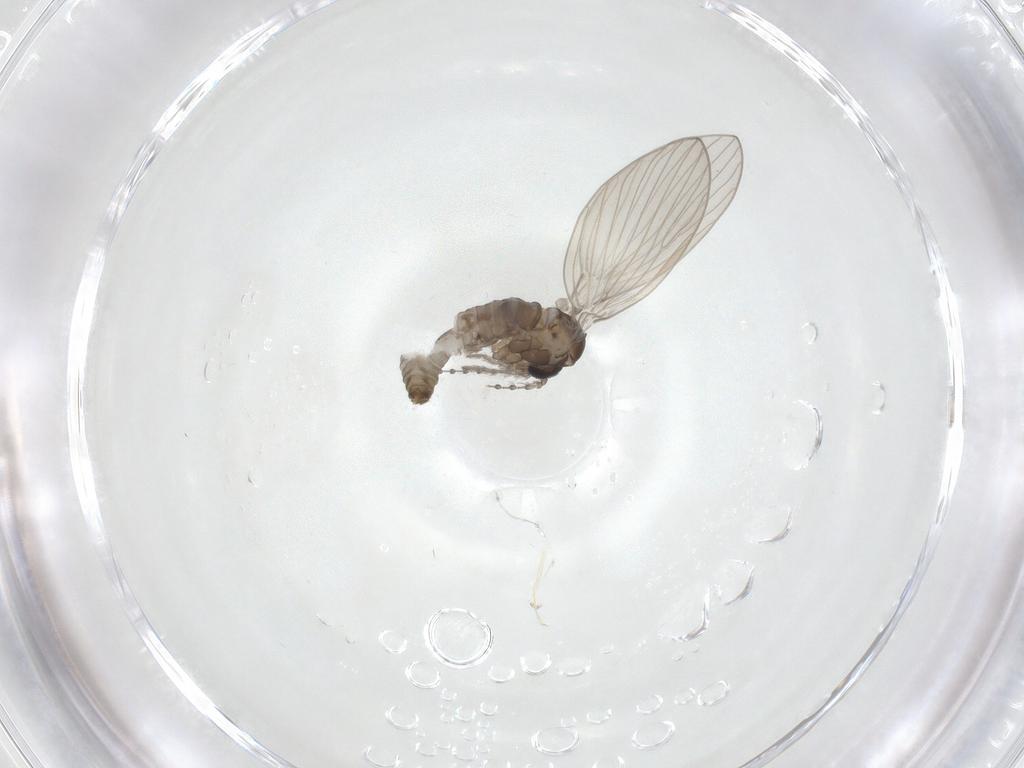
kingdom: Animalia
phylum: Arthropoda
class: Insecta
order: Diptera
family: Psychodidae
